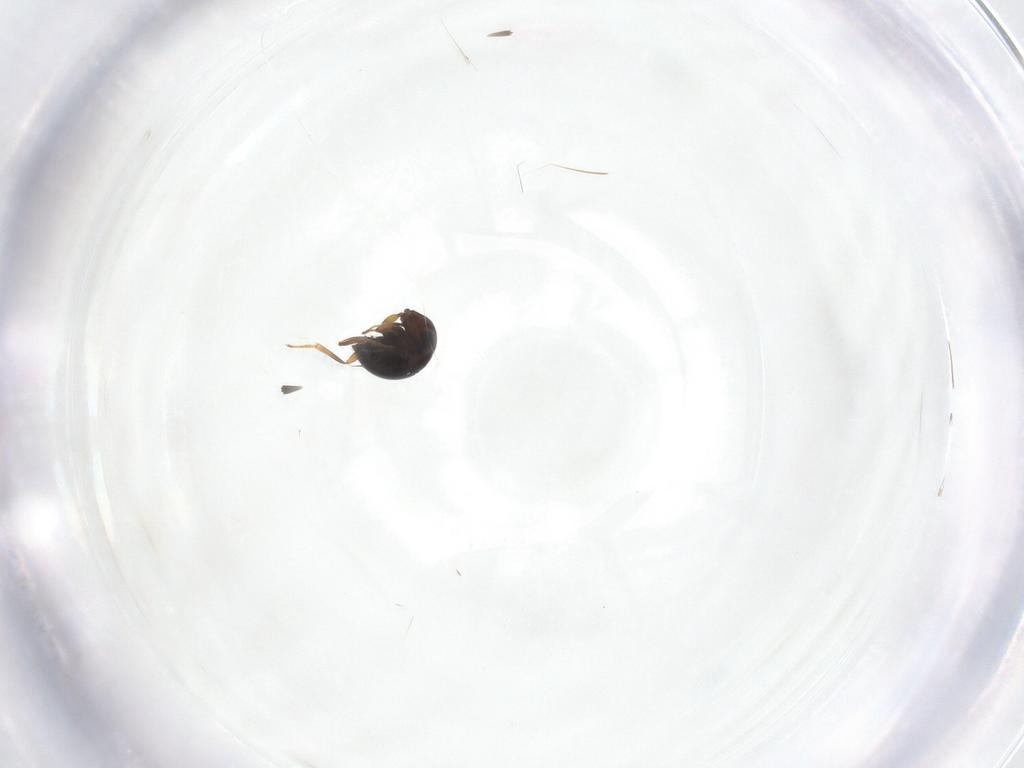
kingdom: Animalia
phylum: Arthropoda
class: Insecta
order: Hymenoptera
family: Scelionidae
